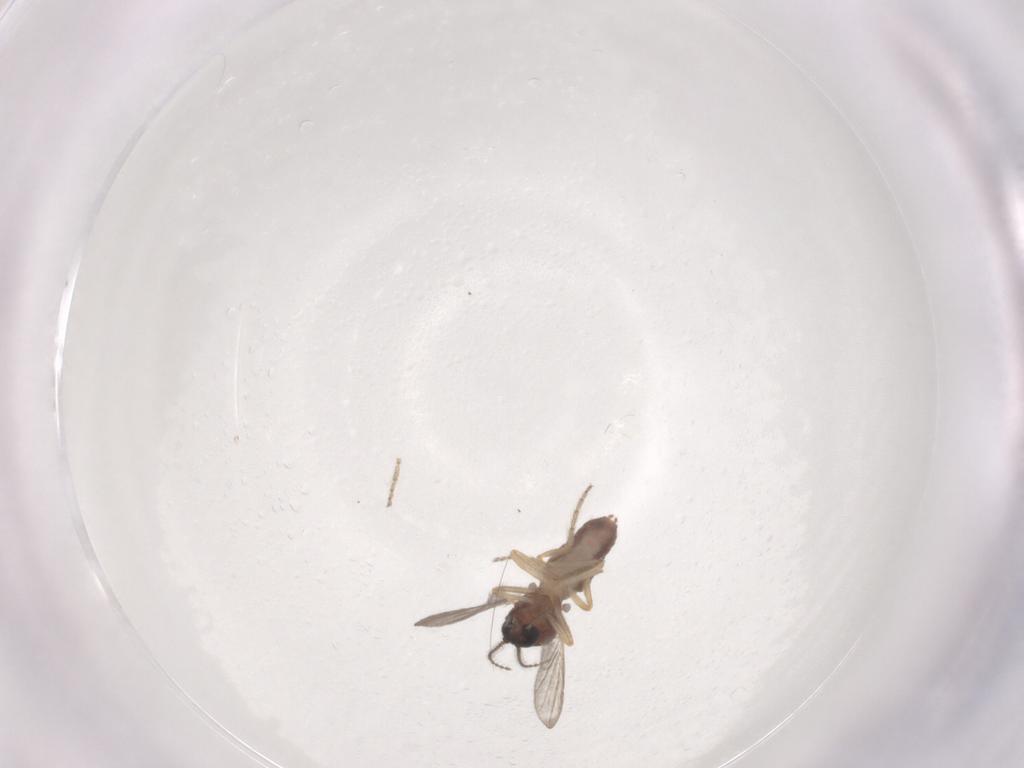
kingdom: Animalia
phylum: Arthropoda
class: Insecta
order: Diptera
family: Ceratopogonidae
